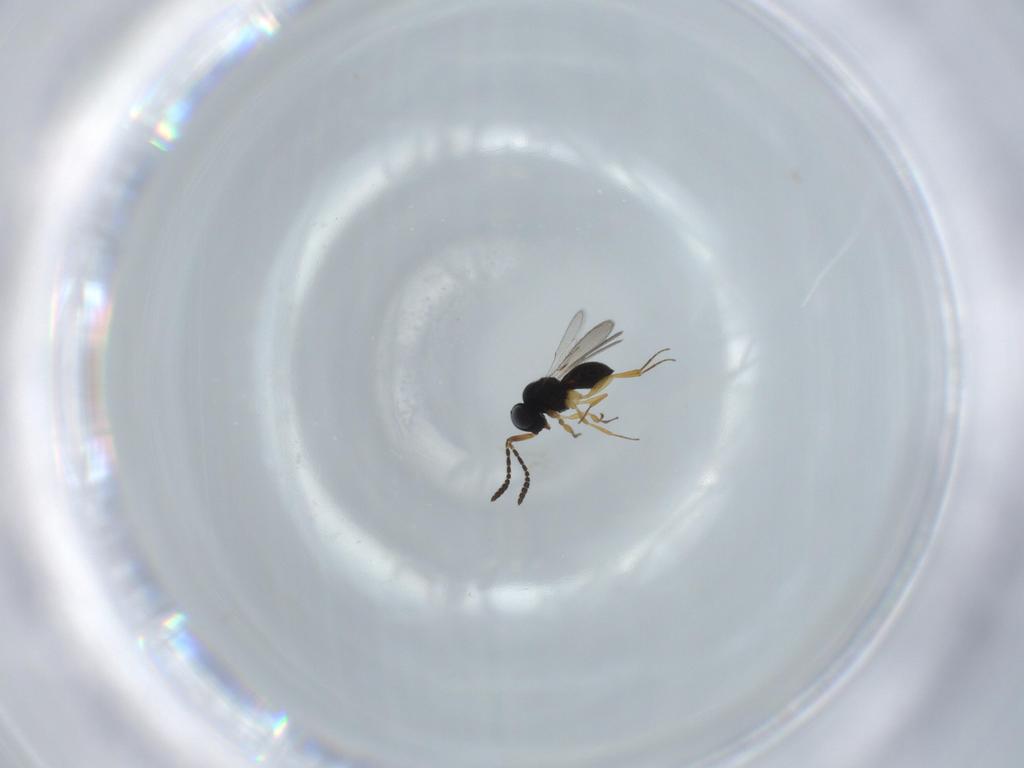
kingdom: Animalia
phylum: Arthropoda
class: Insecta
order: Hymenoptera
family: Scelionidae
